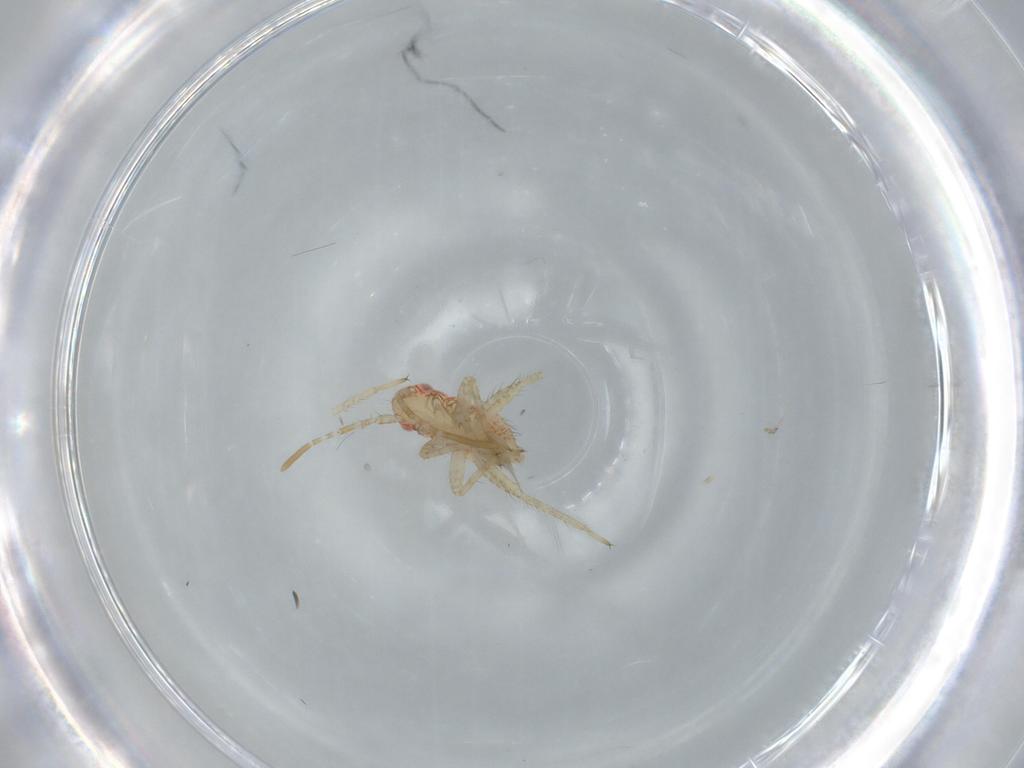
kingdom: Animalia
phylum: Arthropoda
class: Insecta
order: Hemiptera
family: Miridae
